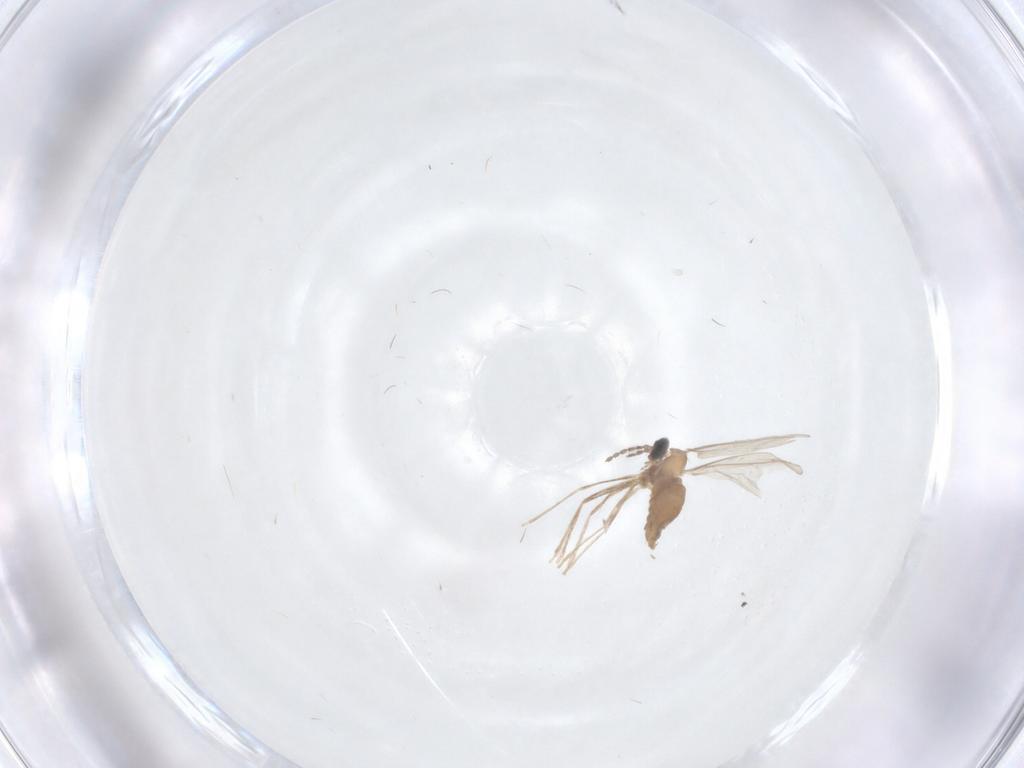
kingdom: Animalia
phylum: Arthropoda
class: Insecta
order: Diptera
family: Cecidomyiidae
